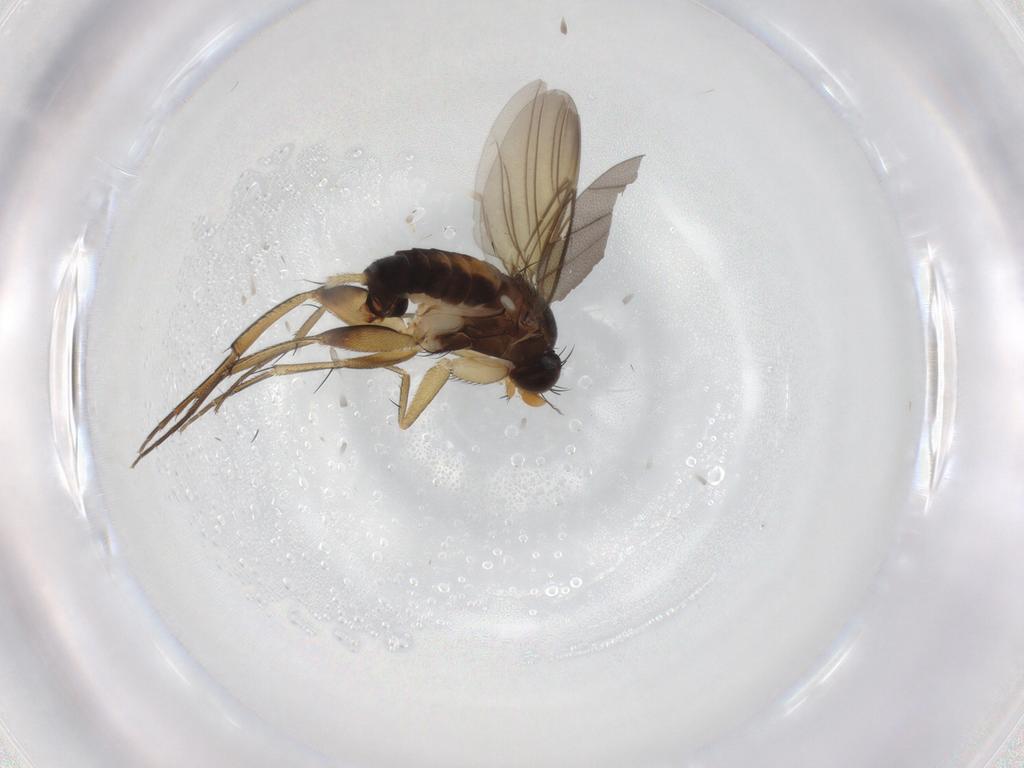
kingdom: Animalia
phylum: Arthropoda
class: Insecta
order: Diptera
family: Phoridae
